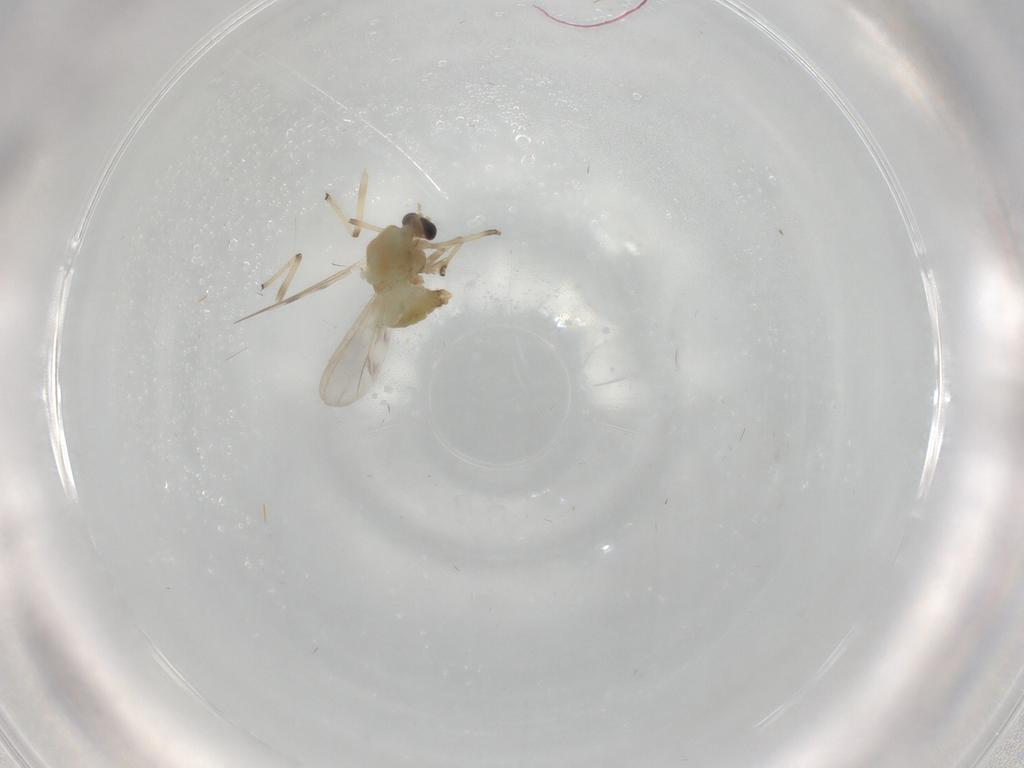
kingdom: Animalia
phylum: Arthropoda
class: Insecta
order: Diptera
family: Chironomidae
